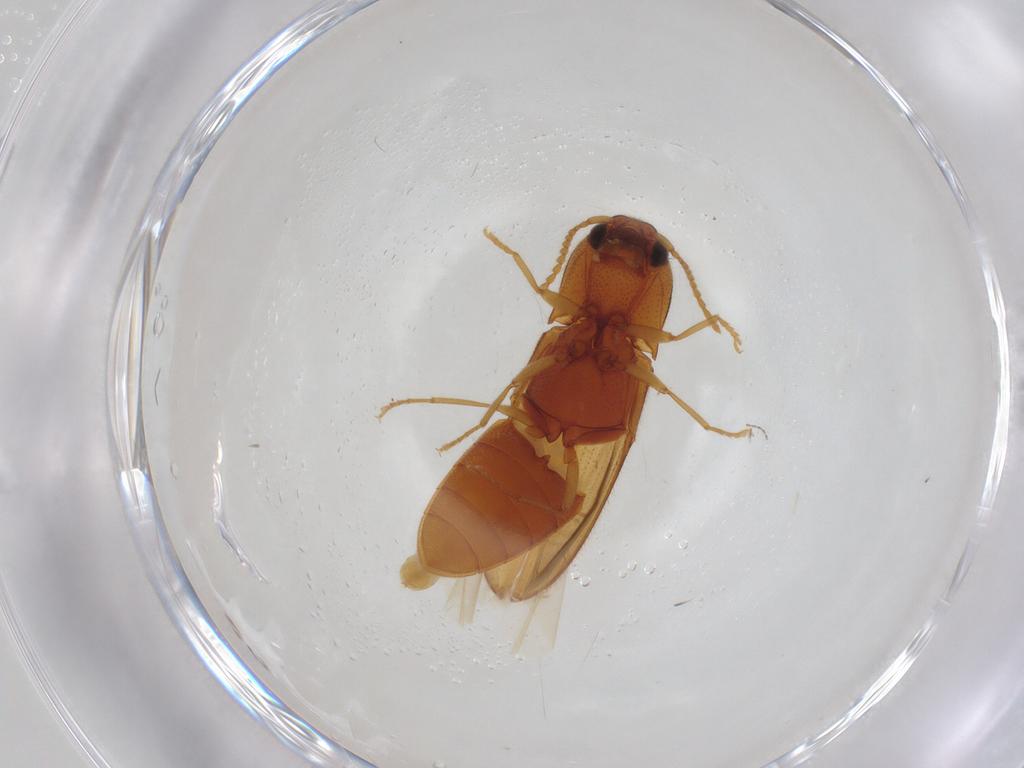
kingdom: Animalia
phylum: Arthropoda
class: Insecta
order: Coleoptera
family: Elateridae
